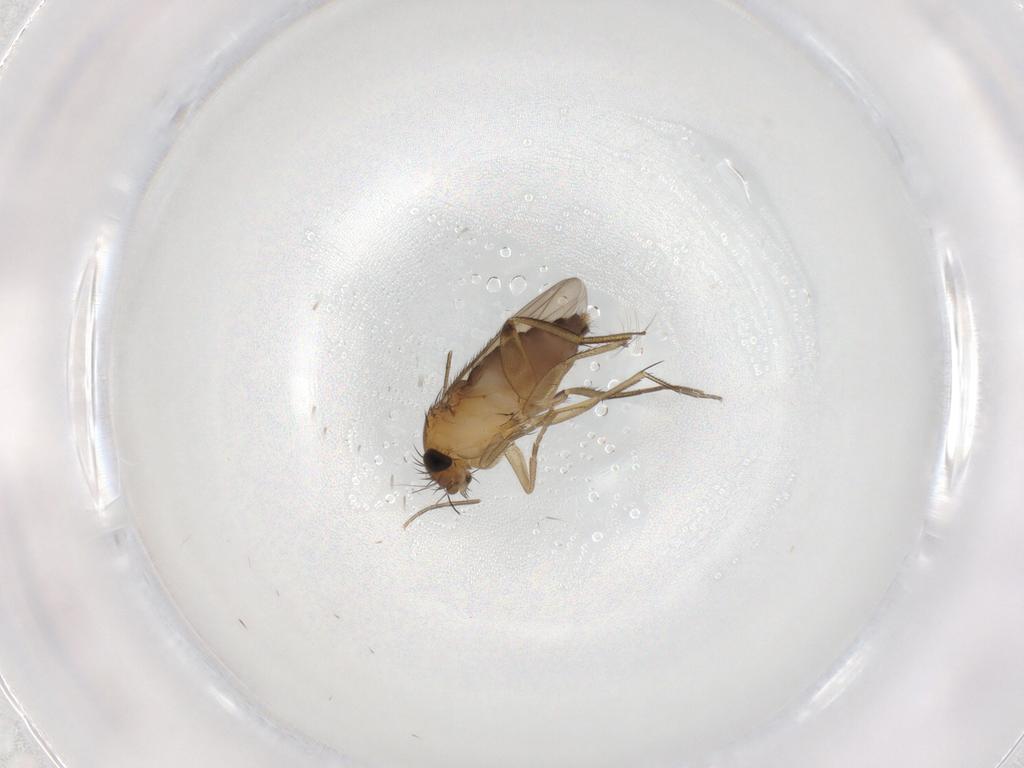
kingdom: Animalia
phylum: Arthropoda
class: Insecta
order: Diptera
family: Phoridae
